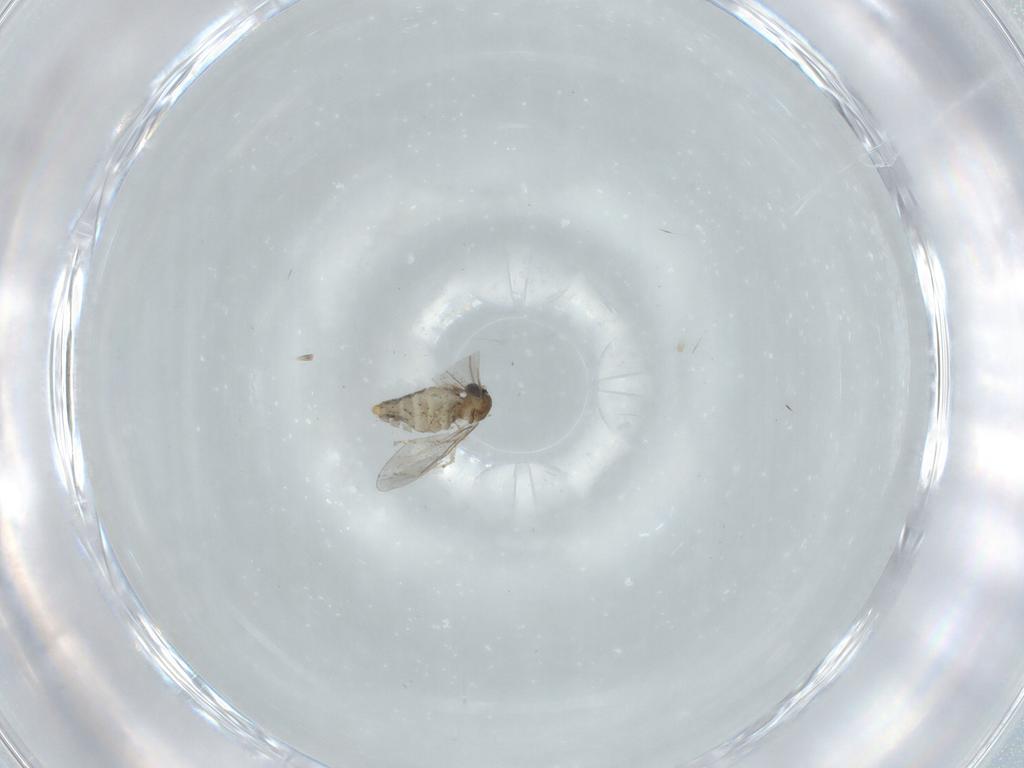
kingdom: Animalia
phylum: Arthropoda
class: Insecta
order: Diptera
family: Cecidomyiidae
